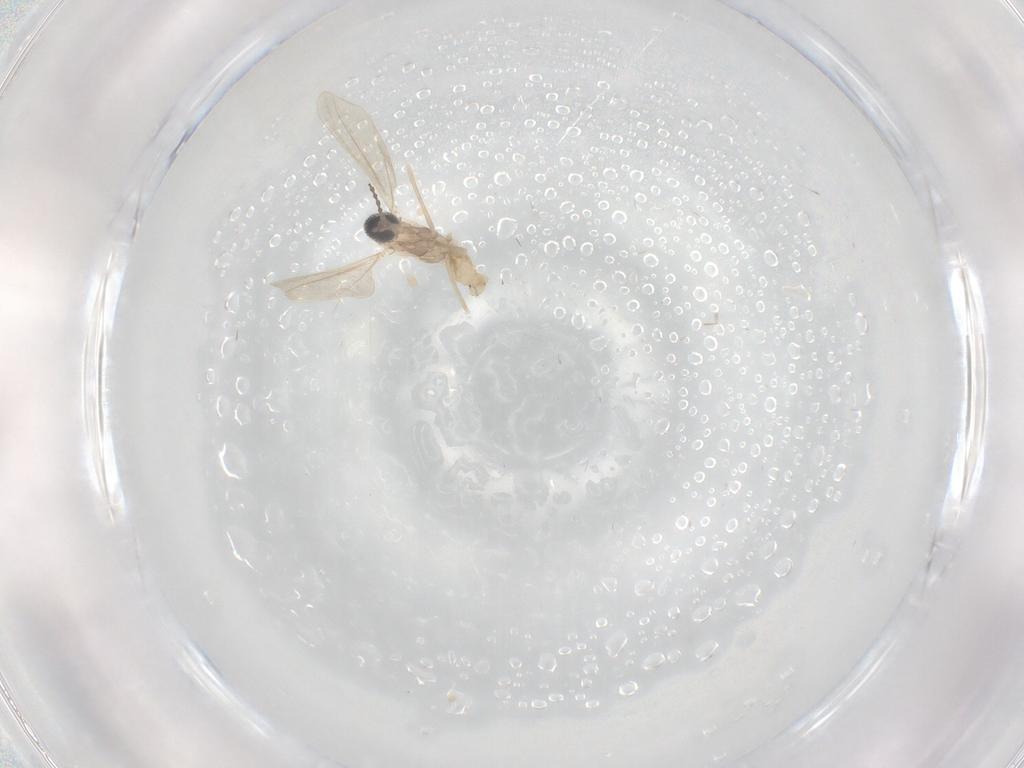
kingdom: Animalia
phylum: Arthropoda
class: Insecta
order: Diptera
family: Cecidomyiidae
